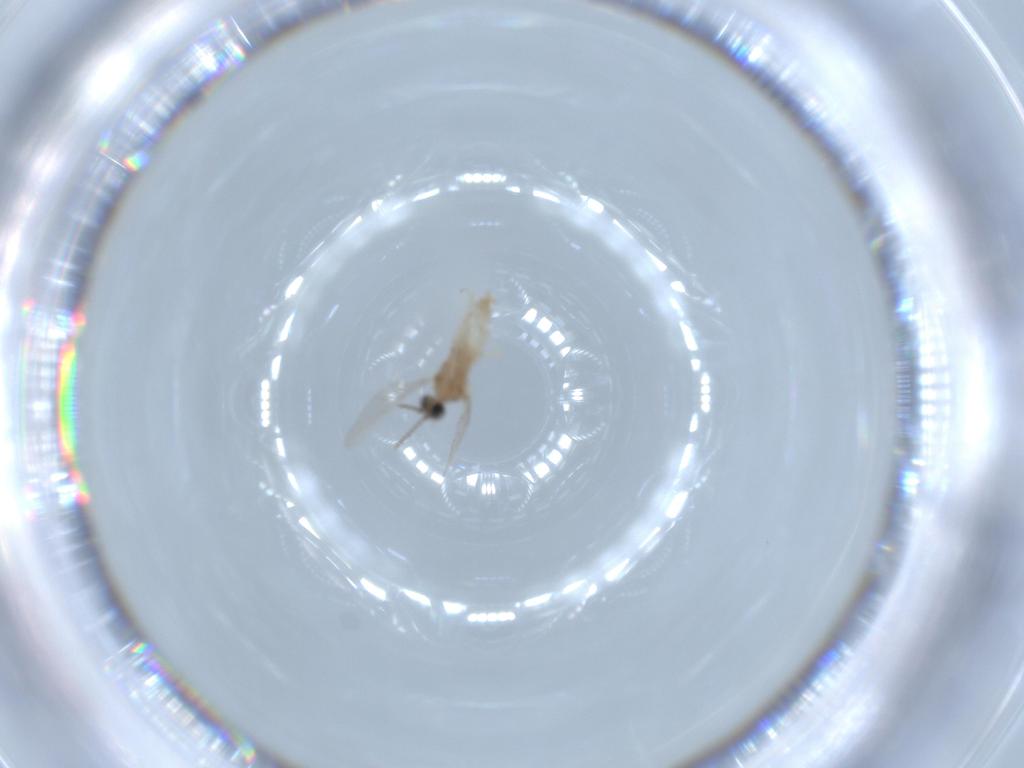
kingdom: Animalia
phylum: Arthropoda
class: Insecta
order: Diptera
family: Cecidomyiidae
